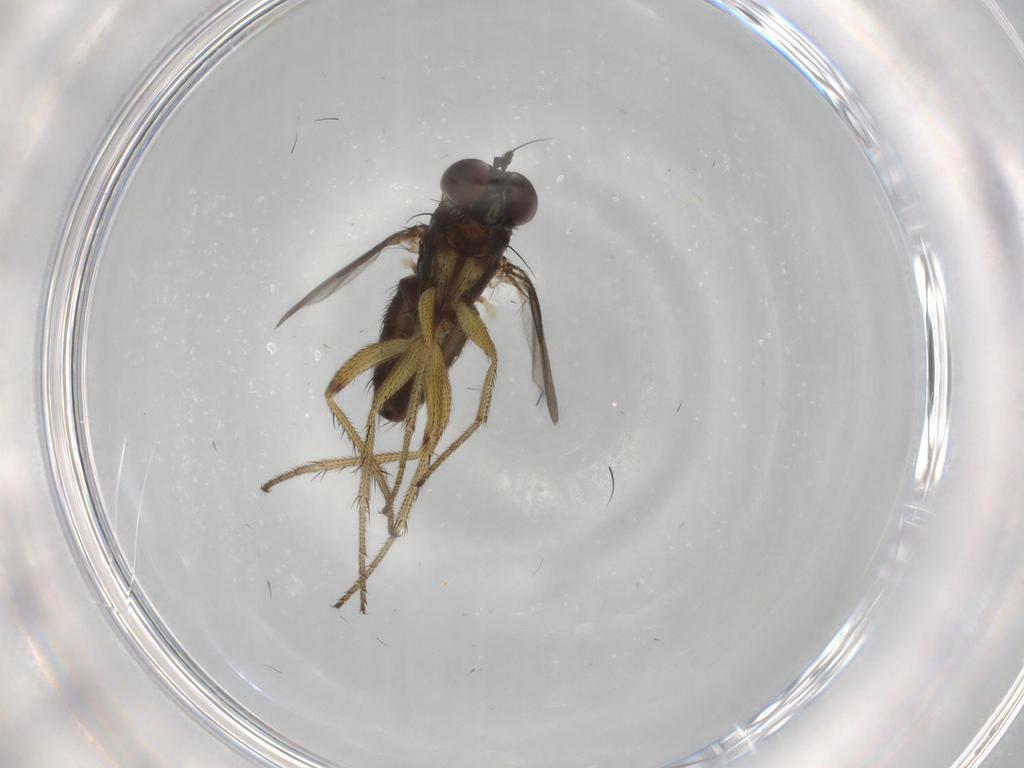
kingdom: Animalia
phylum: Arthropoda
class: Insecta
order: Diptera
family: Dolichopodidae
